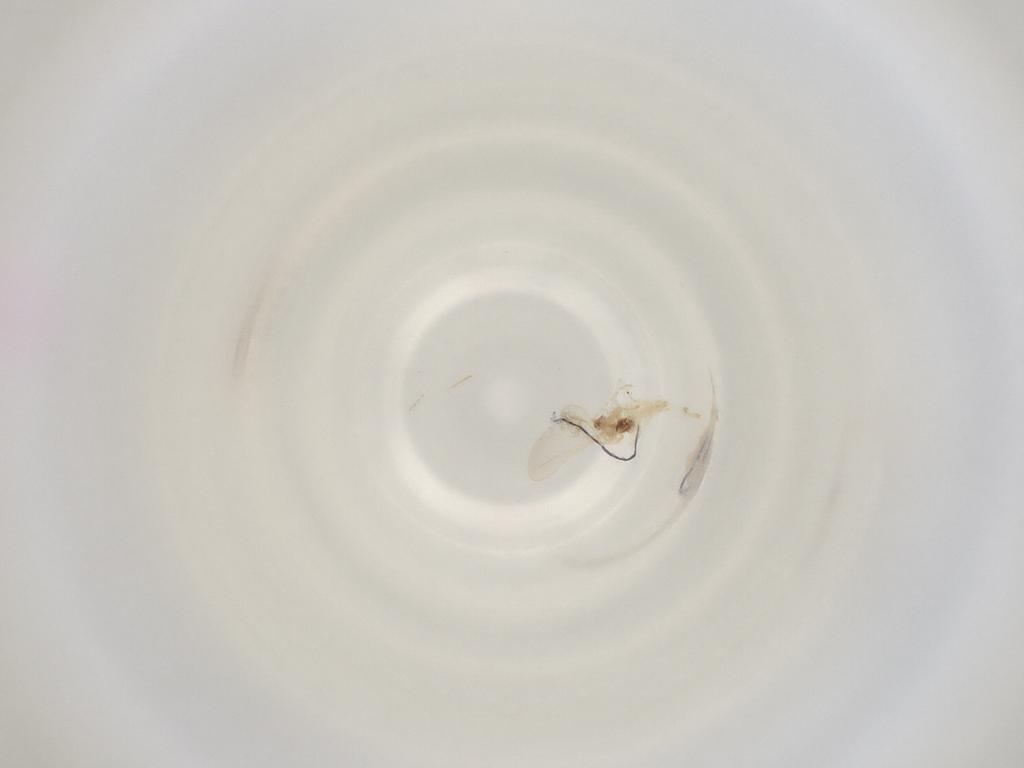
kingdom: Animalia
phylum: Arthropoda
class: Insecta
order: Diptera
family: Cecidomyiidae
